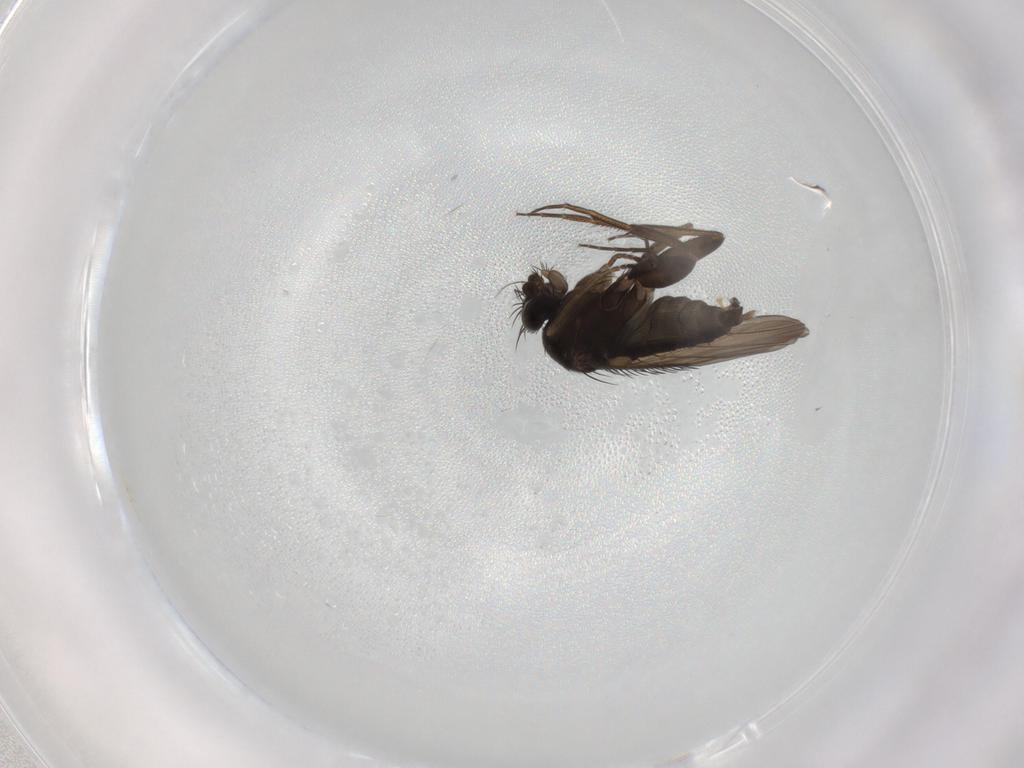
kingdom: Animalia
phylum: Arthropoda
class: Insecta
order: Diptera
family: Phoridae
